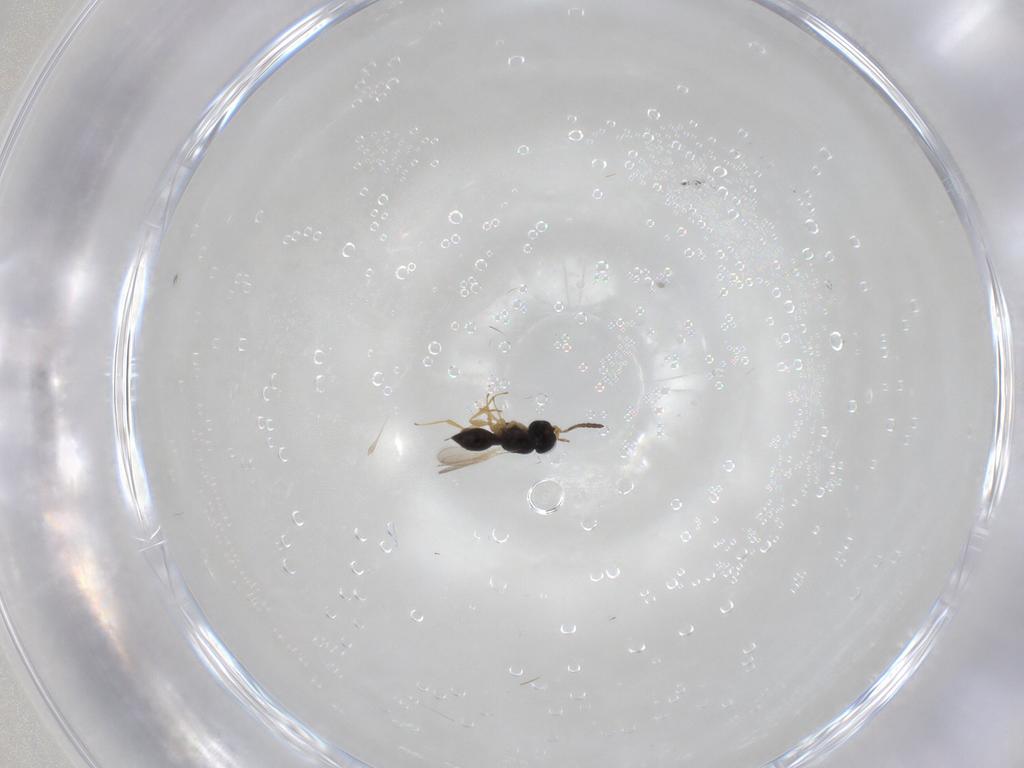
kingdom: Animalia
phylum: Arthropoda
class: Insecta
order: Hymenoptera
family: Scelionidae
